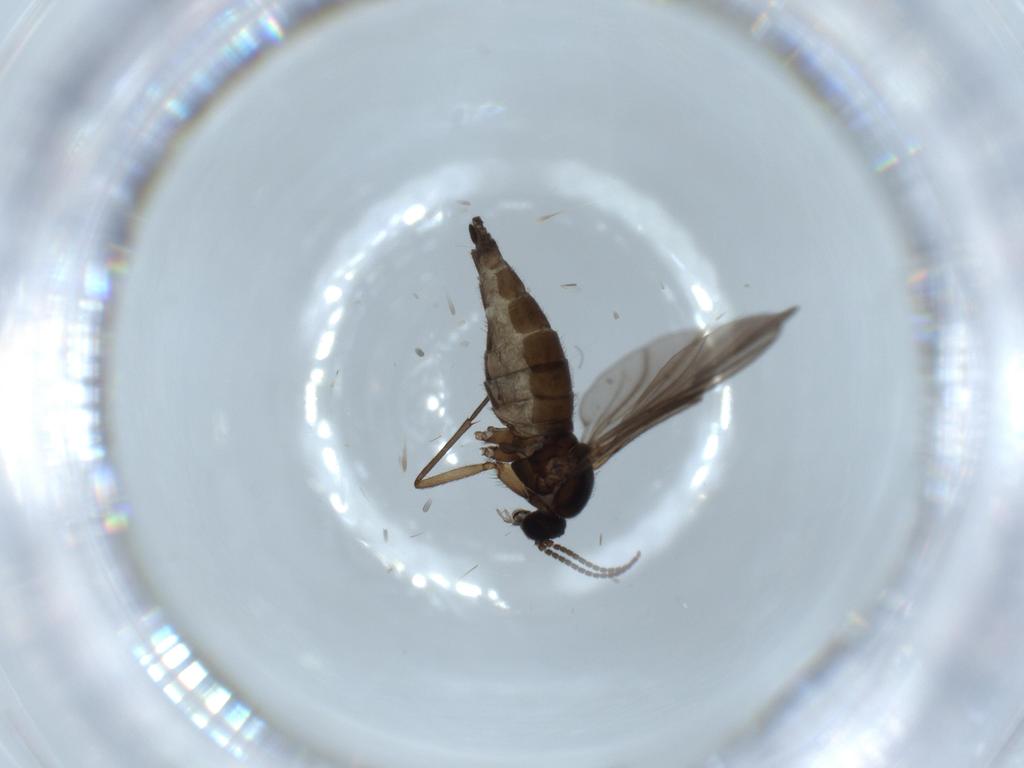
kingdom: Animalia
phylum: Arthropoda
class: Insecta
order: Diptera
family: Sciaridae
